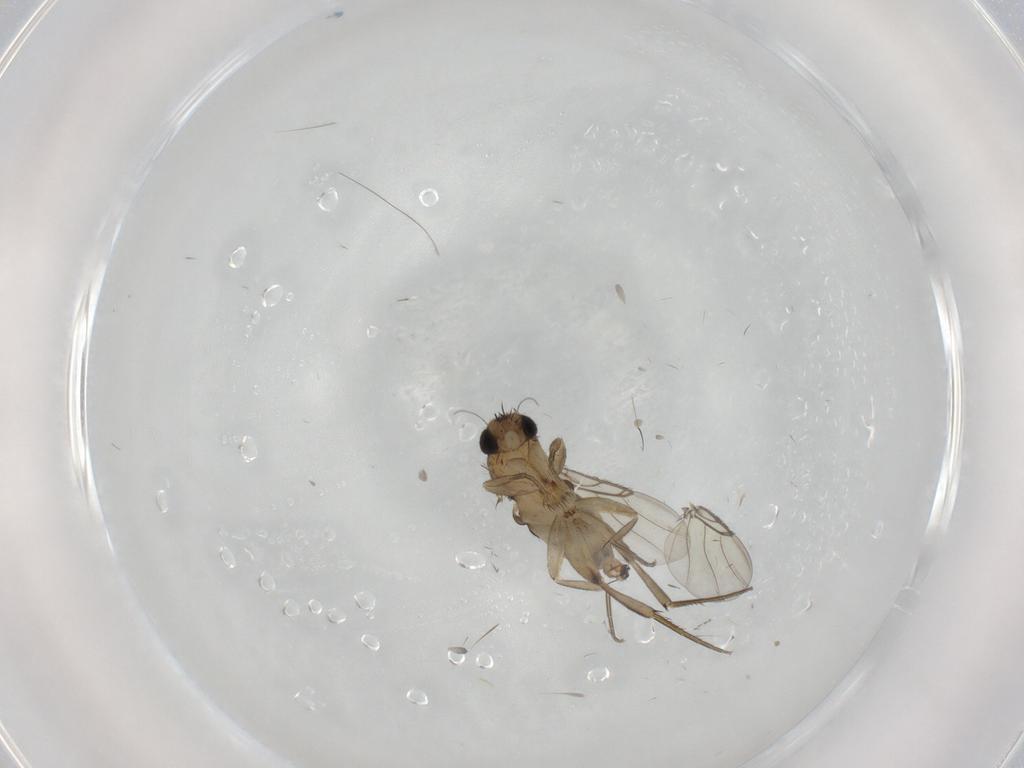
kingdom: Animalia
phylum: Arthropoda
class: Insecta
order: Diptera
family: Phoridae
